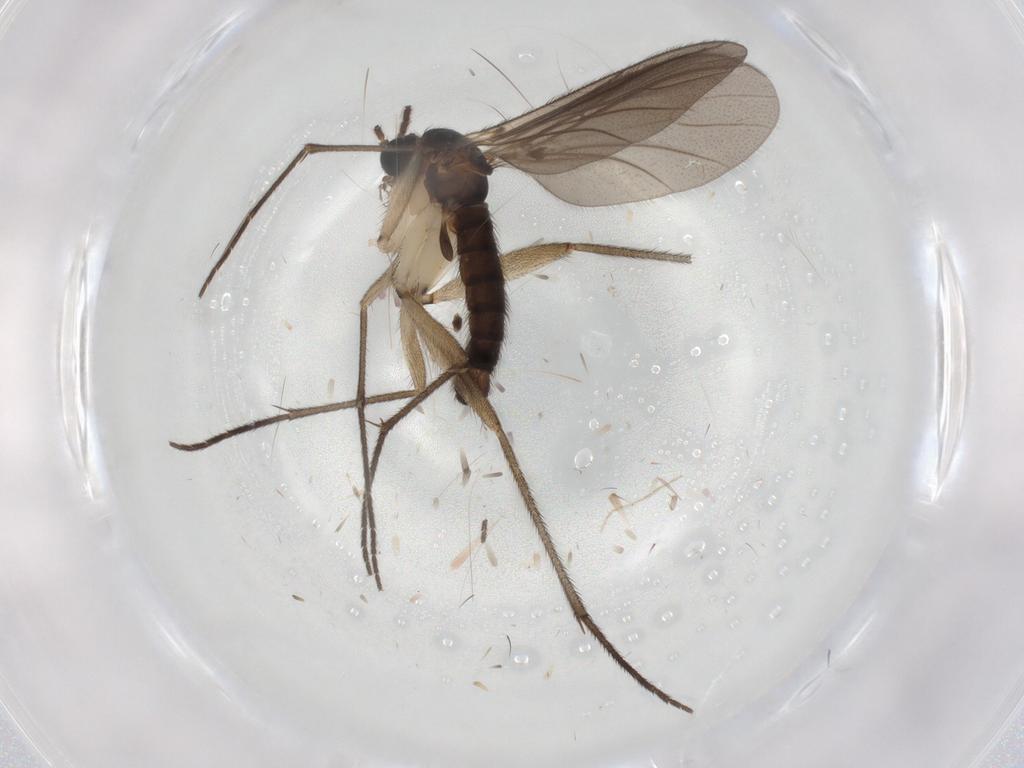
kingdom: Animalia
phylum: Arthropoda
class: Insecta
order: Diptera
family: Sciaridae
